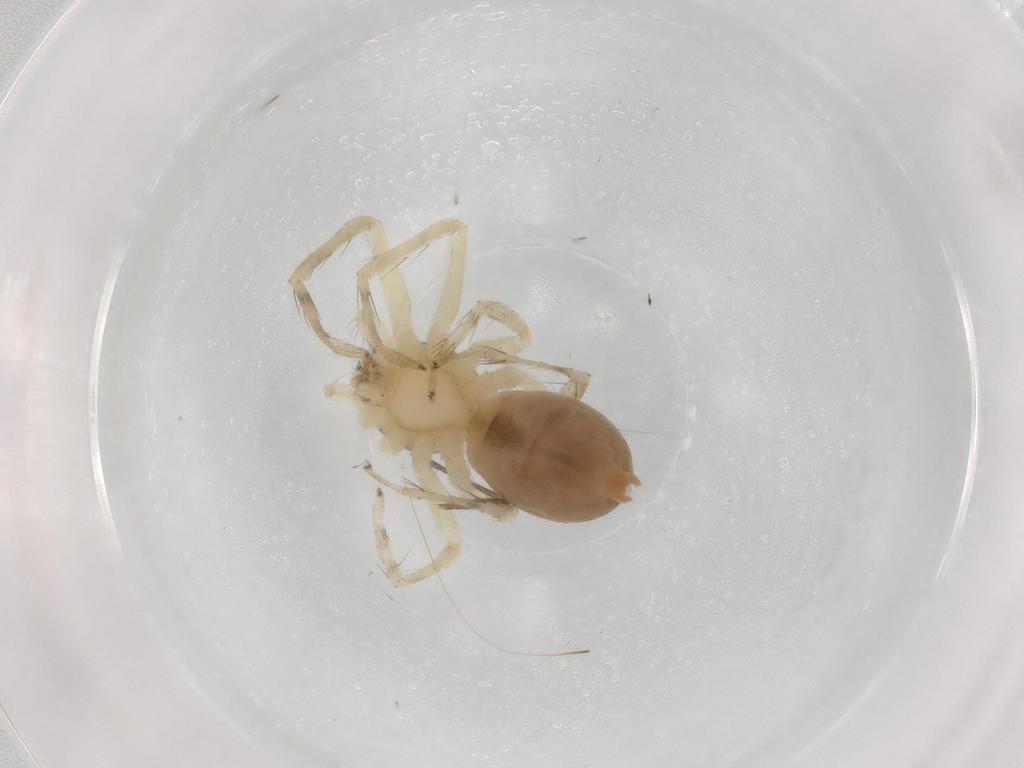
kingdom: Animalia
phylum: Arthropoda
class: Arachnida
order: Araneae
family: Anyphaenidae
